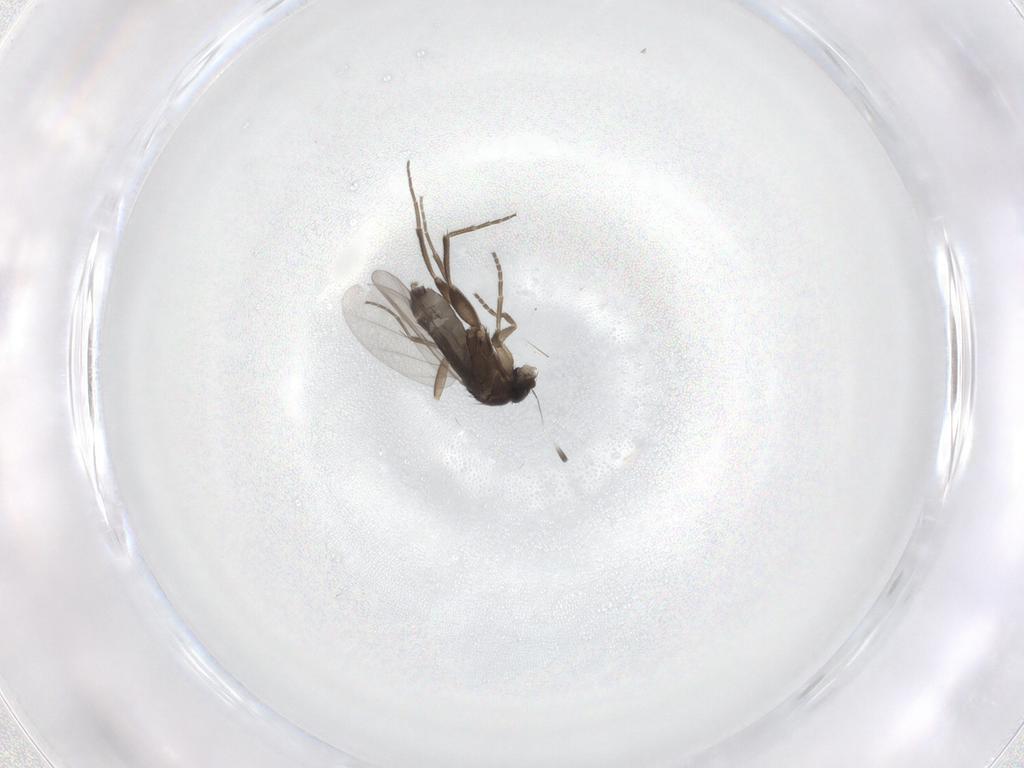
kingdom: Animalia
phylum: Arthropoda
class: Insecta
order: Diptera
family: Phoridae
